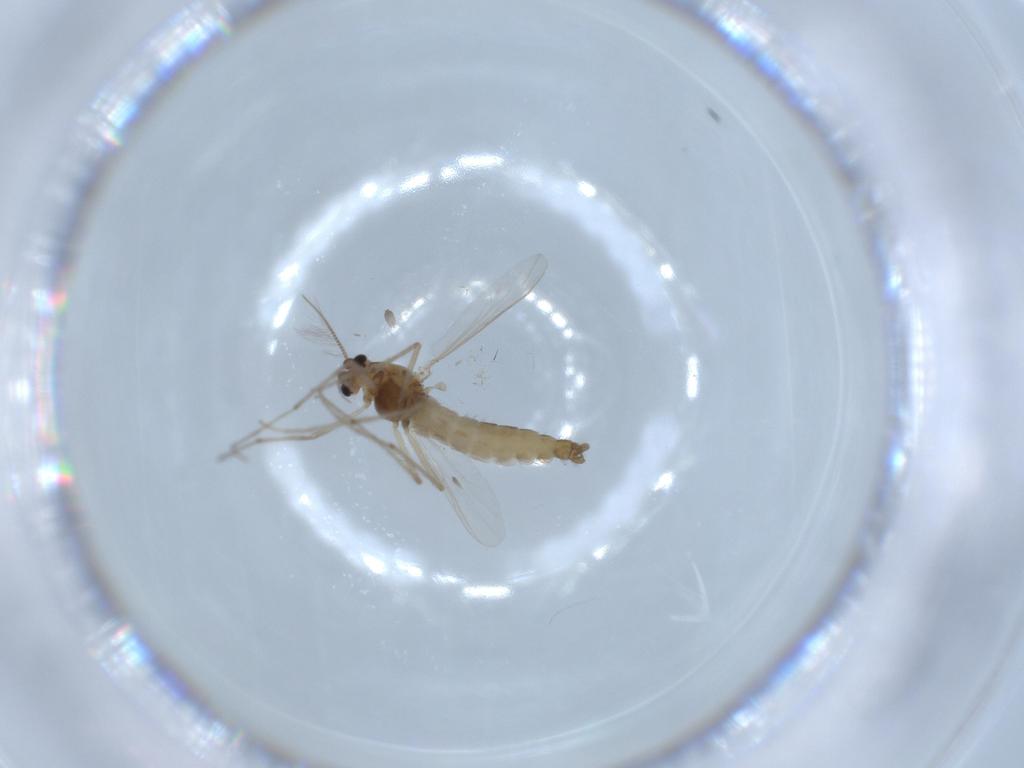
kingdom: Animalia
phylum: Arthropoda
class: Insecta
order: Diptera
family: Chironomidae
